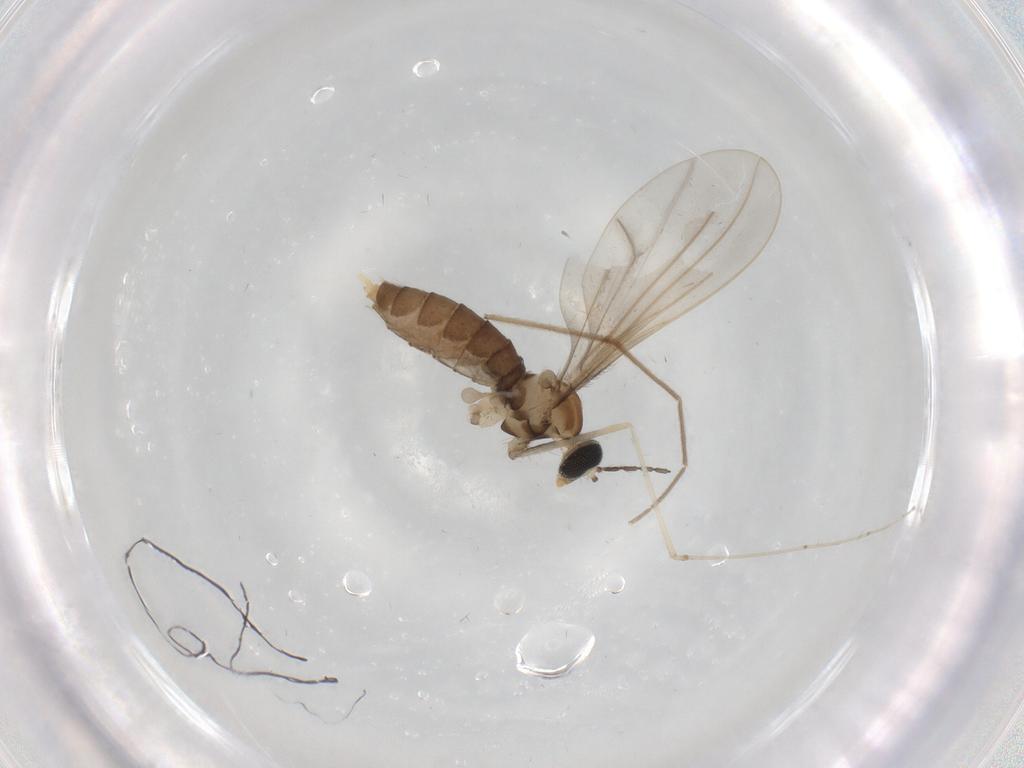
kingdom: Animalia
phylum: Arthropoda
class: Insecta
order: Diptera
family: Cecidomyiidae
